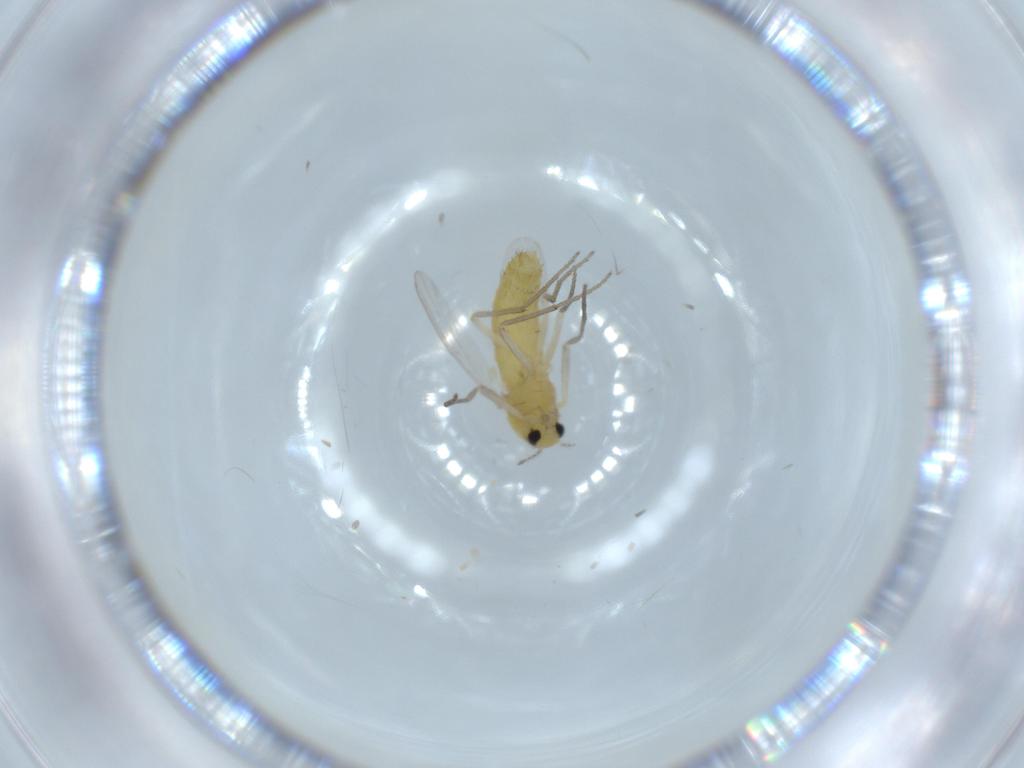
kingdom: Animalia
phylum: Arthropoda
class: Insecta
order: Diptera
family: Chironomidae
